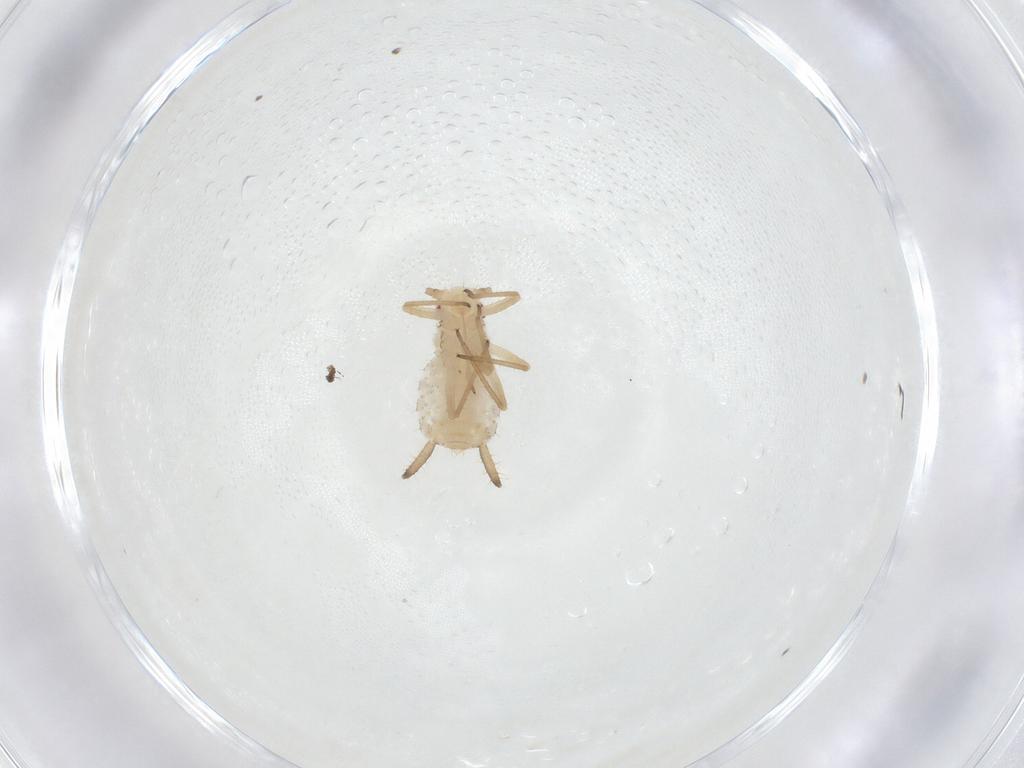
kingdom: Animalia
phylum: Arthropoda
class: Insecta
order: Hemiptera
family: Aphididae
